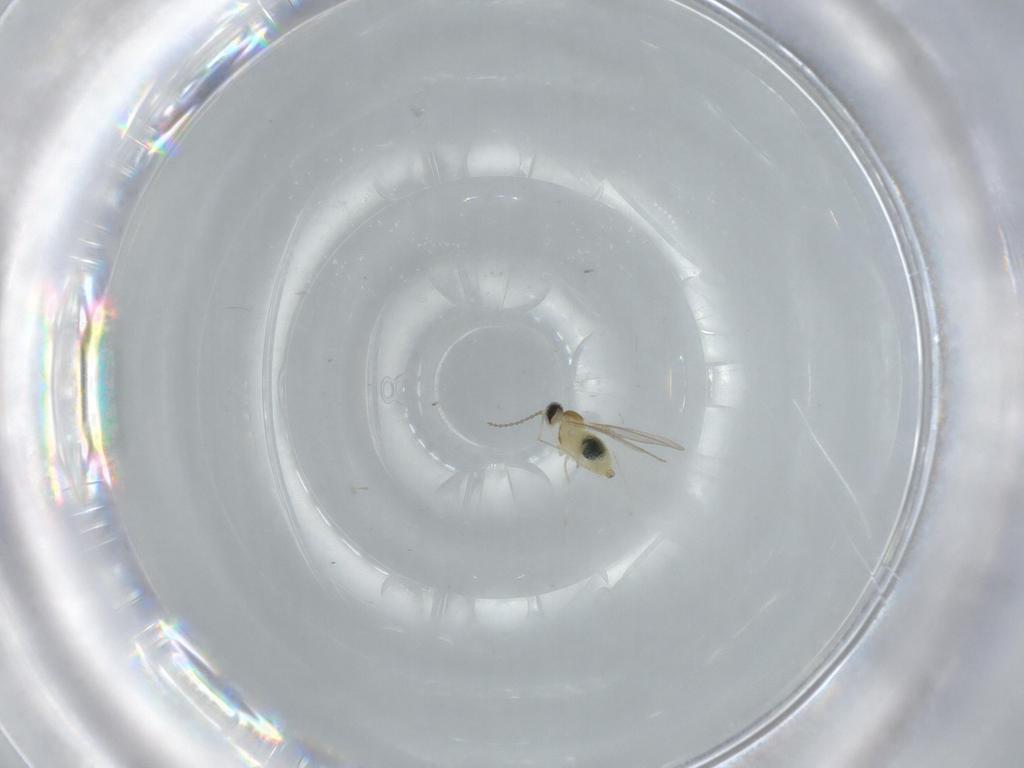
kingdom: Animalia
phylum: Arthropoda
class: Insecta
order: Diptera
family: Cecidomyiidae
